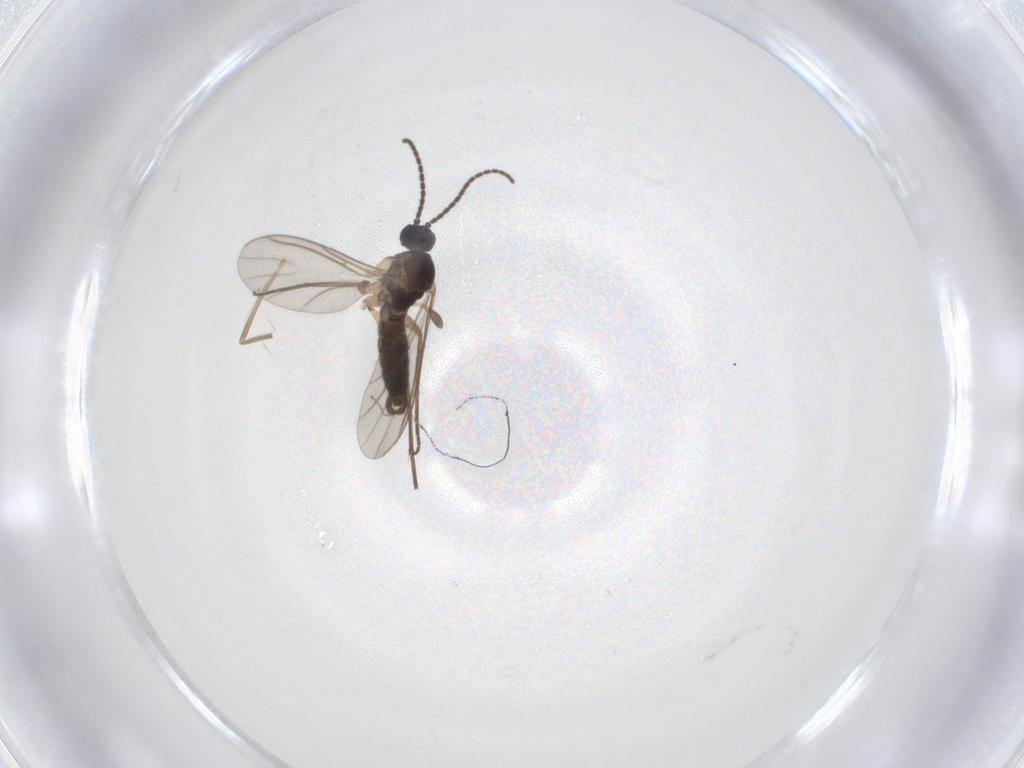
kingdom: Animalia
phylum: Arthropoda
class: Insecta
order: Diptera
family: Chironomidae
